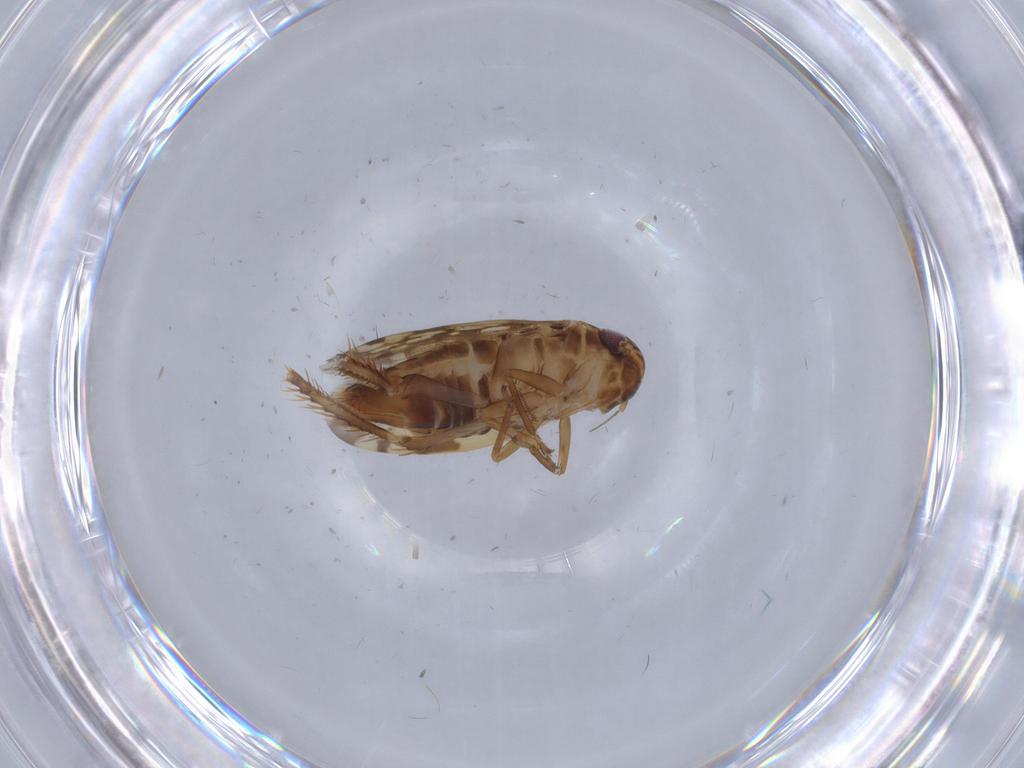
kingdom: Animalia
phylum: Arthropoda
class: Insecta
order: Hemiptera
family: Cicadellidae
